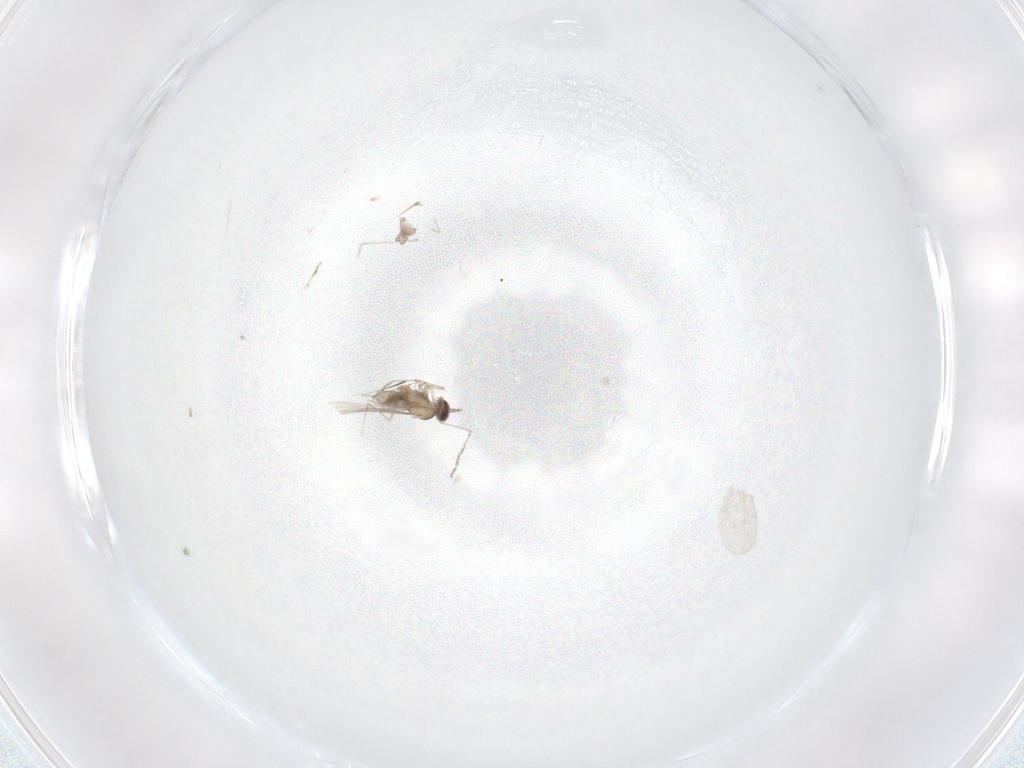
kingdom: Animalia
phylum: Arthropoda
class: Insecta
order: Diptera
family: Cecidomyiidae
